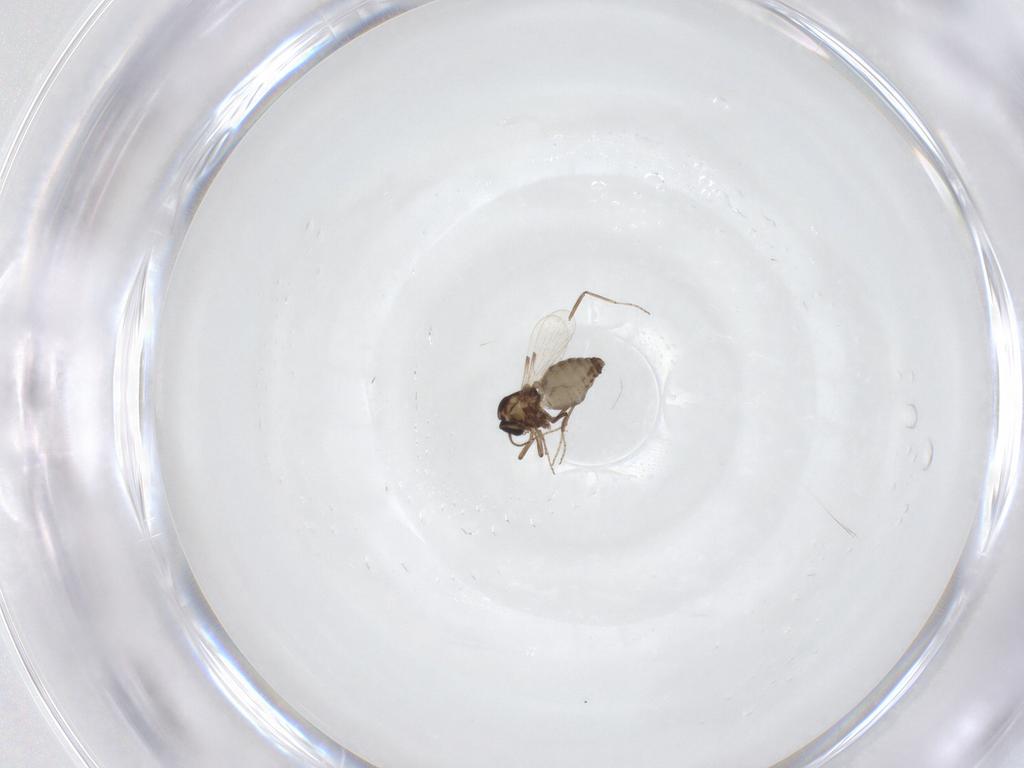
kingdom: Animalia
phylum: Arthropoda
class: Insecta
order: Diptera
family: Ceratopogonidae
